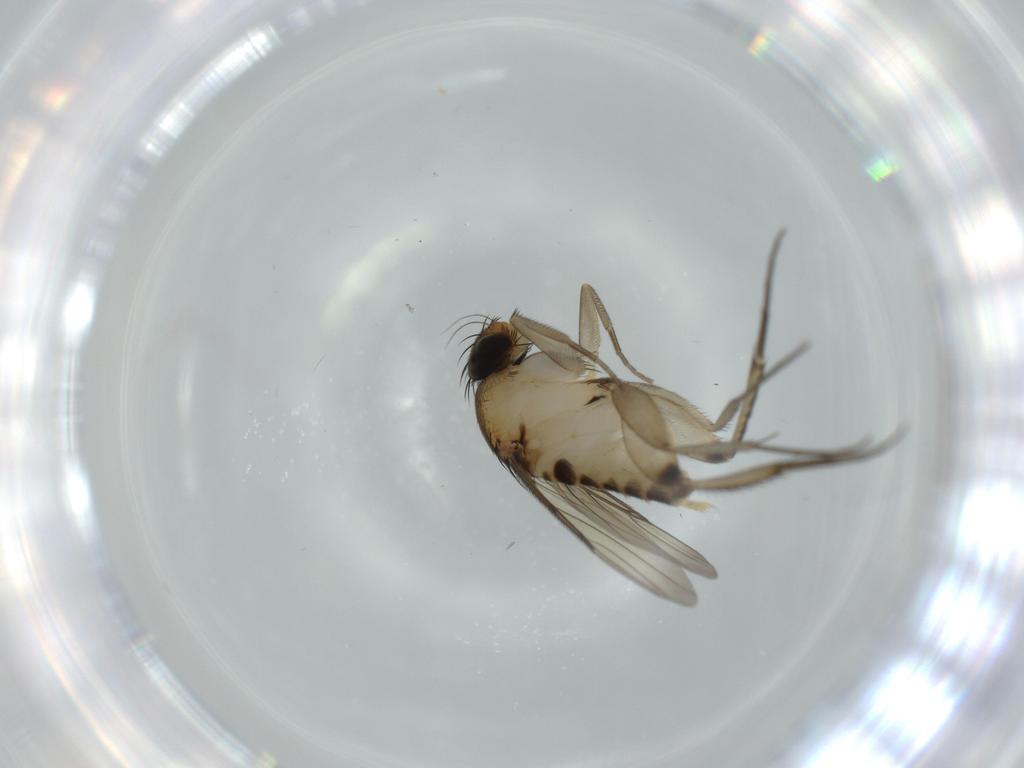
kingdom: Animalia
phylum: Arthropoda
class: Insecta
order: Diptera
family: Phoridae
